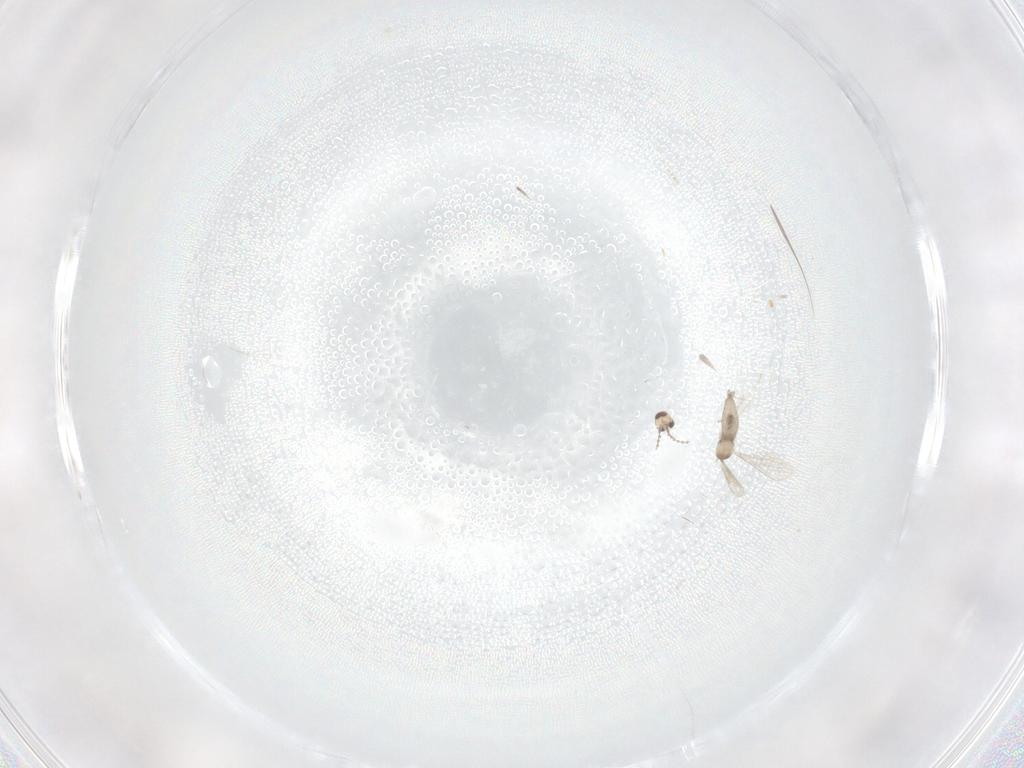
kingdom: Animalia
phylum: Arthropoda
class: Insecta
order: Diptera
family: Cecidomyiidae
